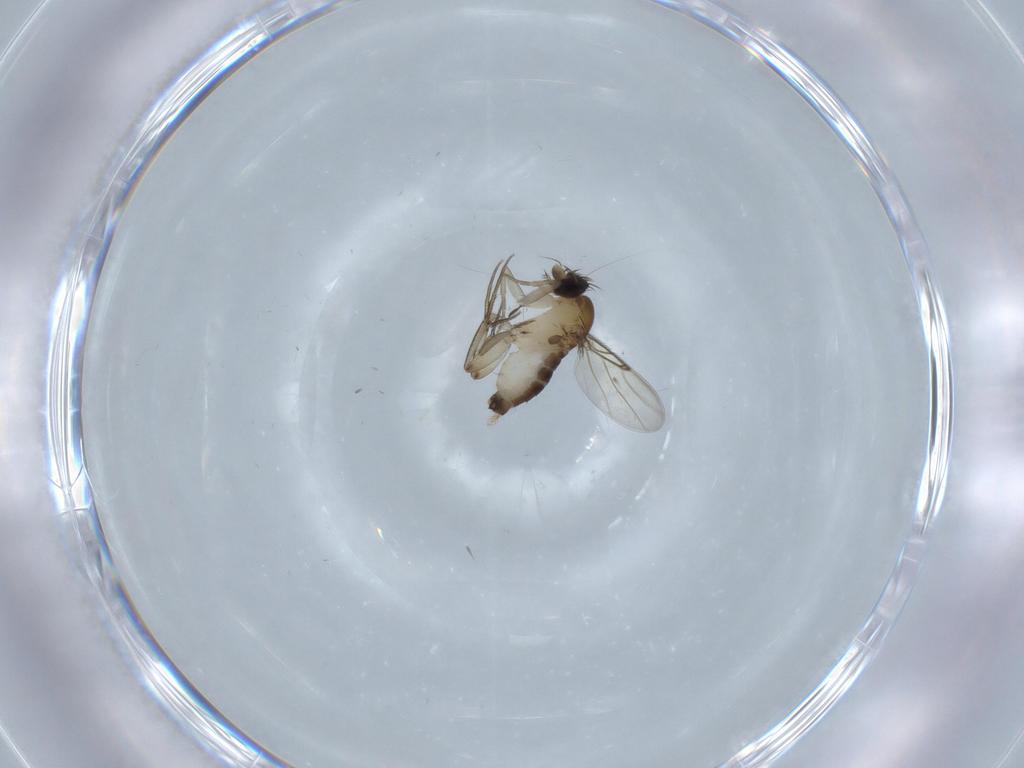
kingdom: Animalia
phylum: Arthropoda
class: Insecta
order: Diptera
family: Phoridae
